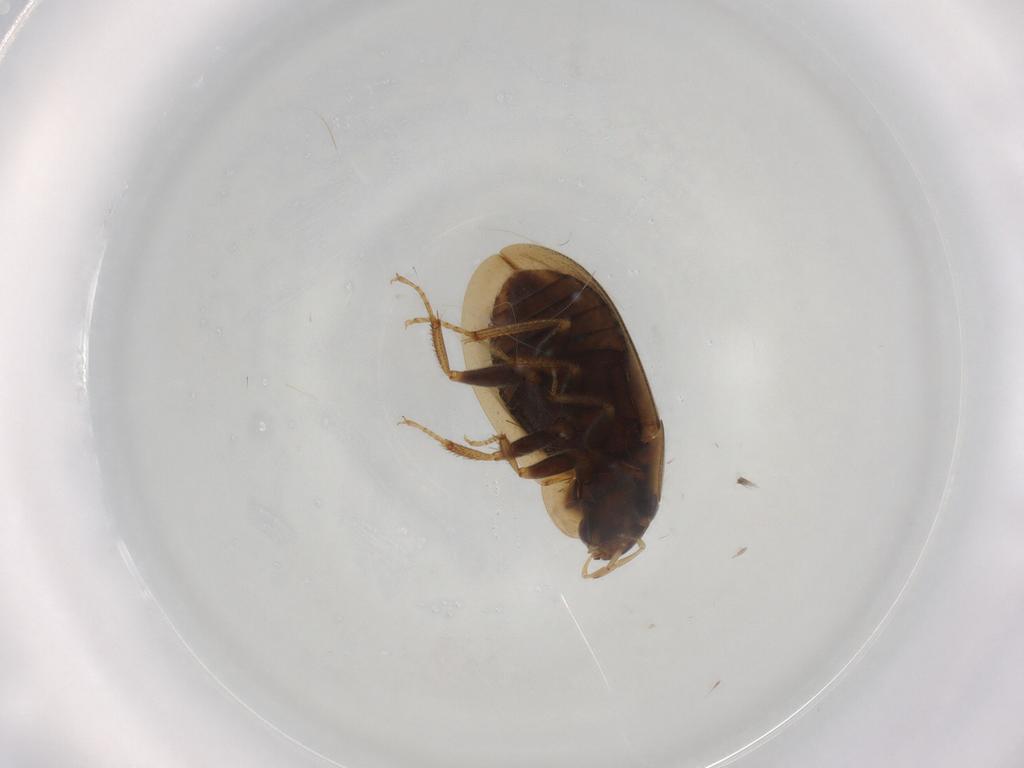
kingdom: Animalia
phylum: Arthropoda
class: Insecta
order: Coleoptera
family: Hydrophilidae
